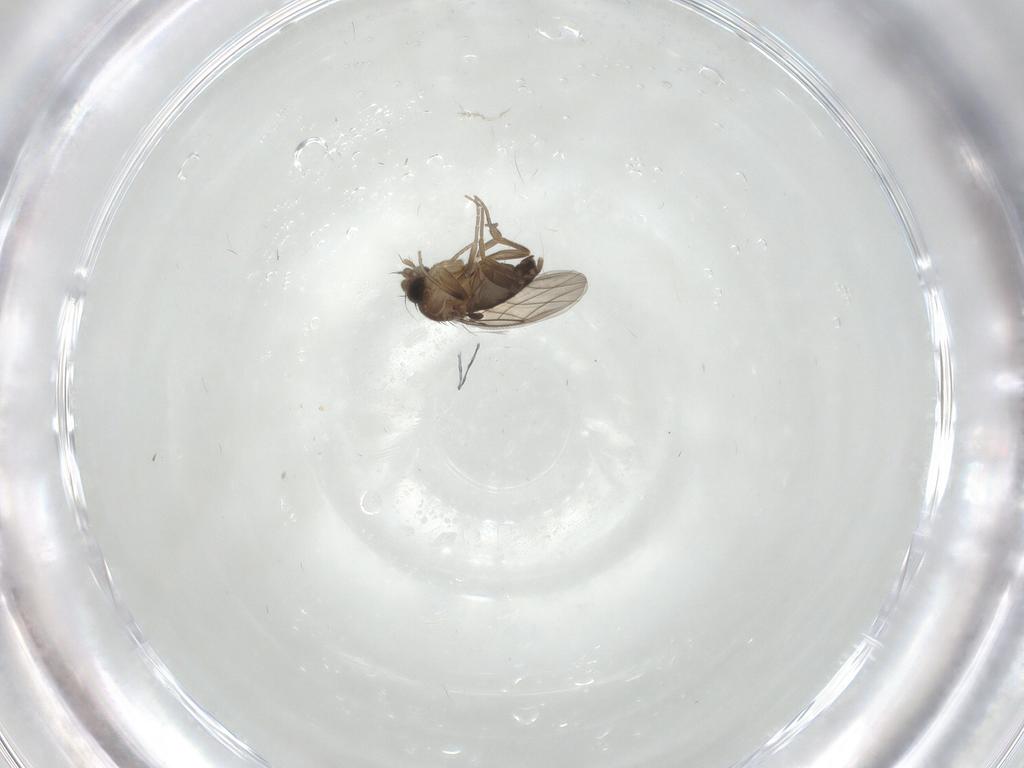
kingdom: Animalia
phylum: Arthropoda
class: Insecta
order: Diptera
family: Phoridae
